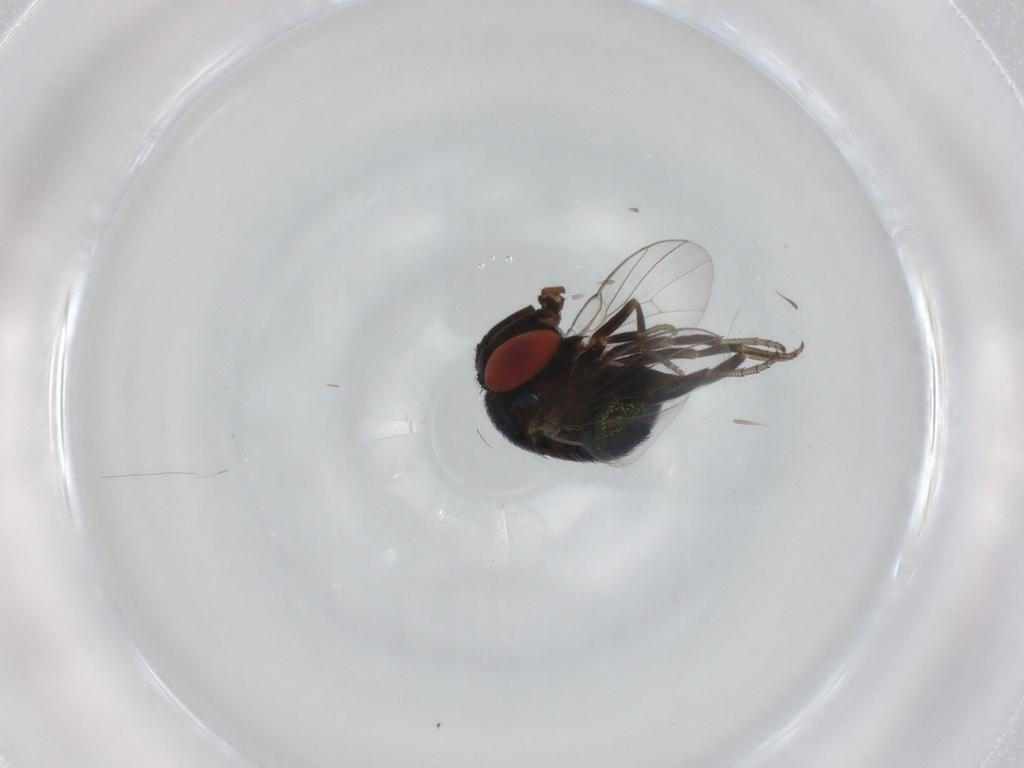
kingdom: Animalia
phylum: Arthropoda
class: Insecta
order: Diptera
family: Cryptochetidae
